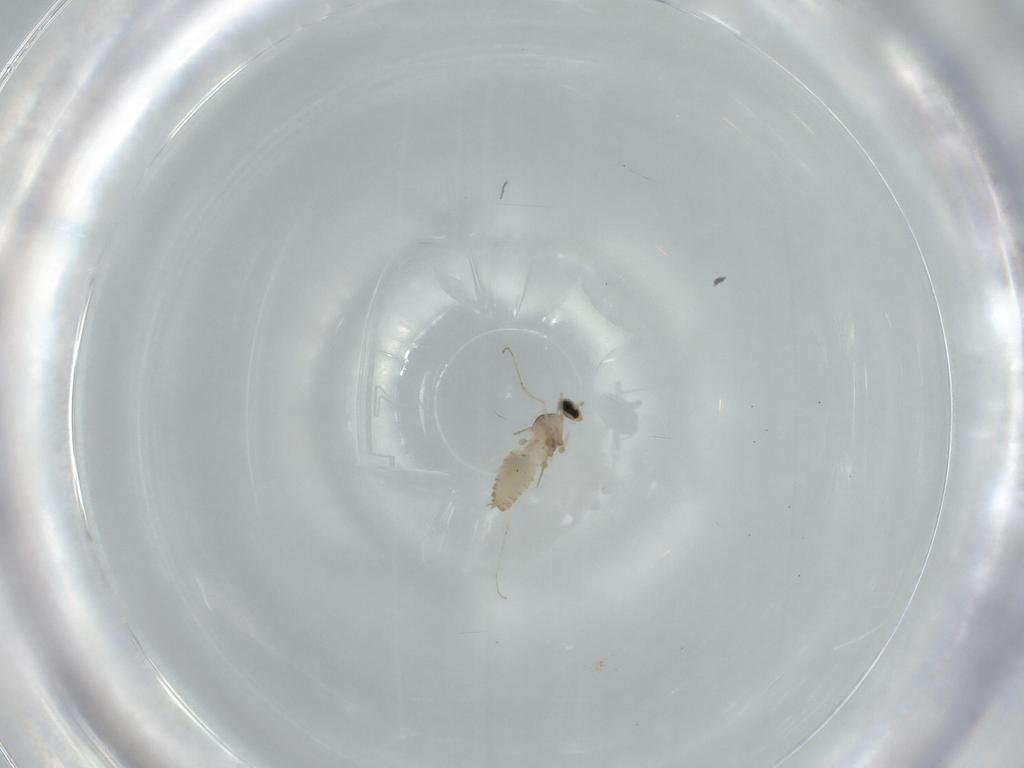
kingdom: Animalia
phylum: Arthropoda
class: Insecta
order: Diptera
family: Cecidomyiidae
